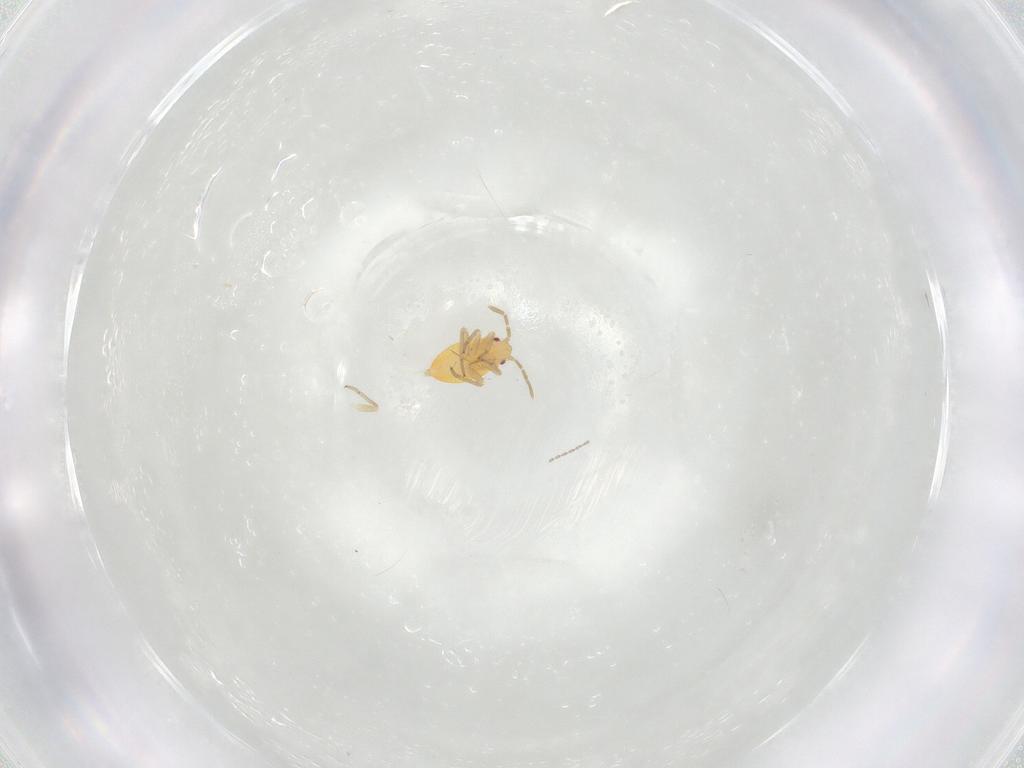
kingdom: Animalia
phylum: Arthropoda
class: Insecta
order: Hemiptera
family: Miridae
